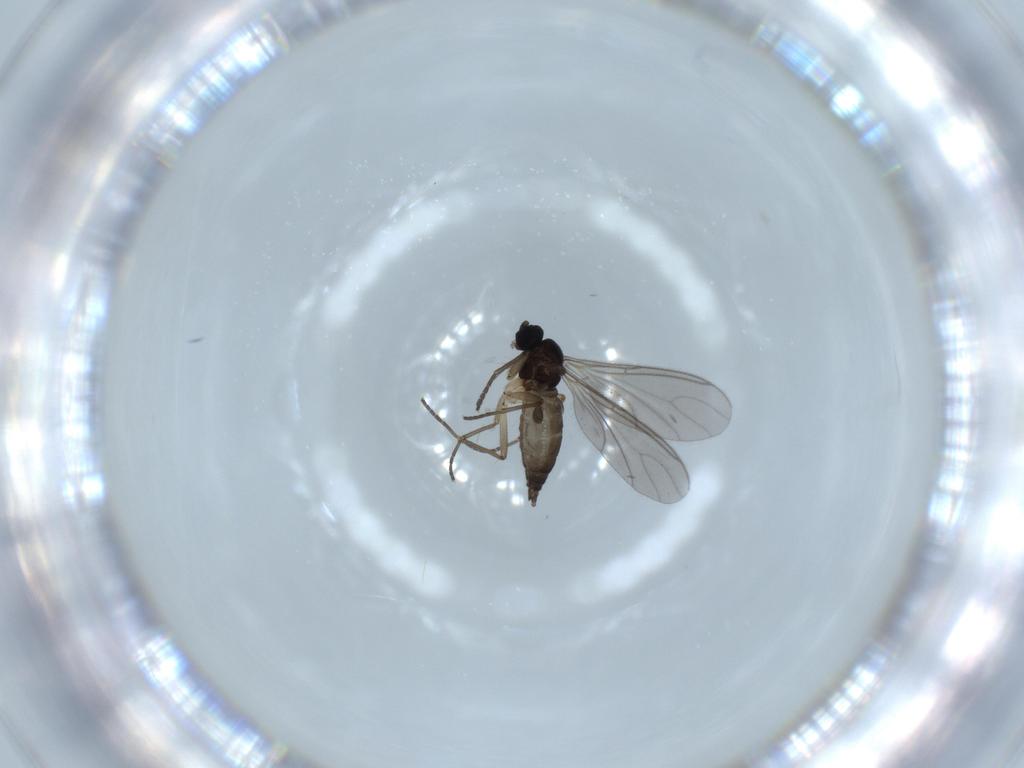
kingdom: Animalia
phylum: Arthropoda
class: Insecta
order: Diptera
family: Sciaridae
